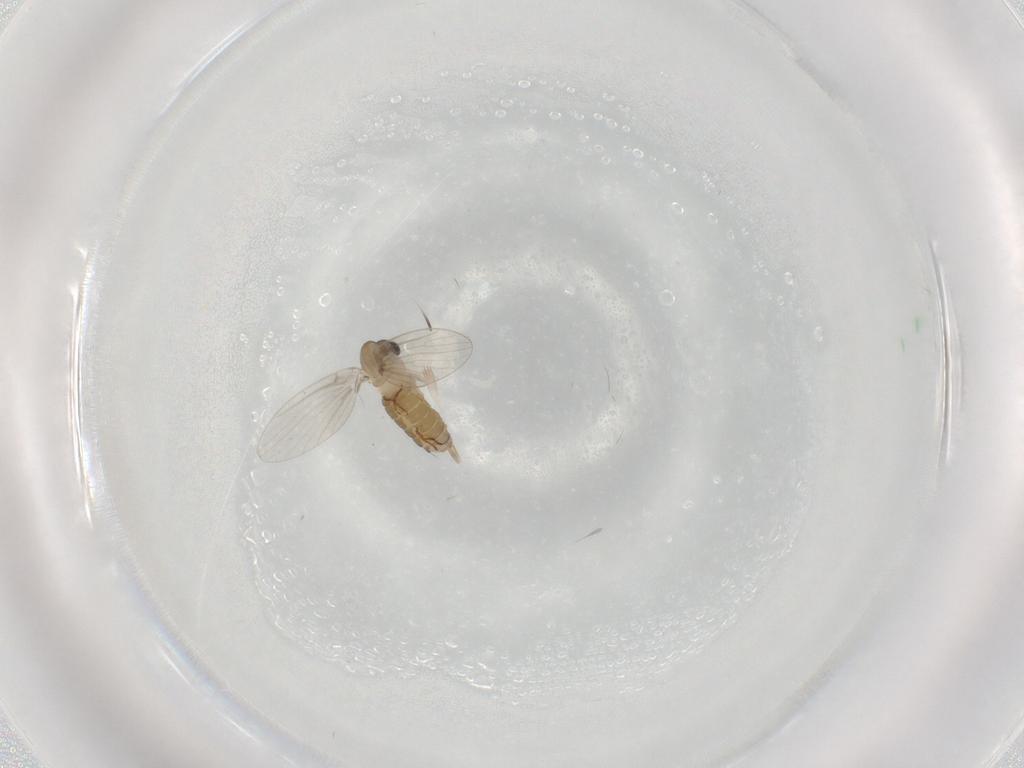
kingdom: Animalia
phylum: Arthropoda
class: Insecta
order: Diptera
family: Psychodidae
